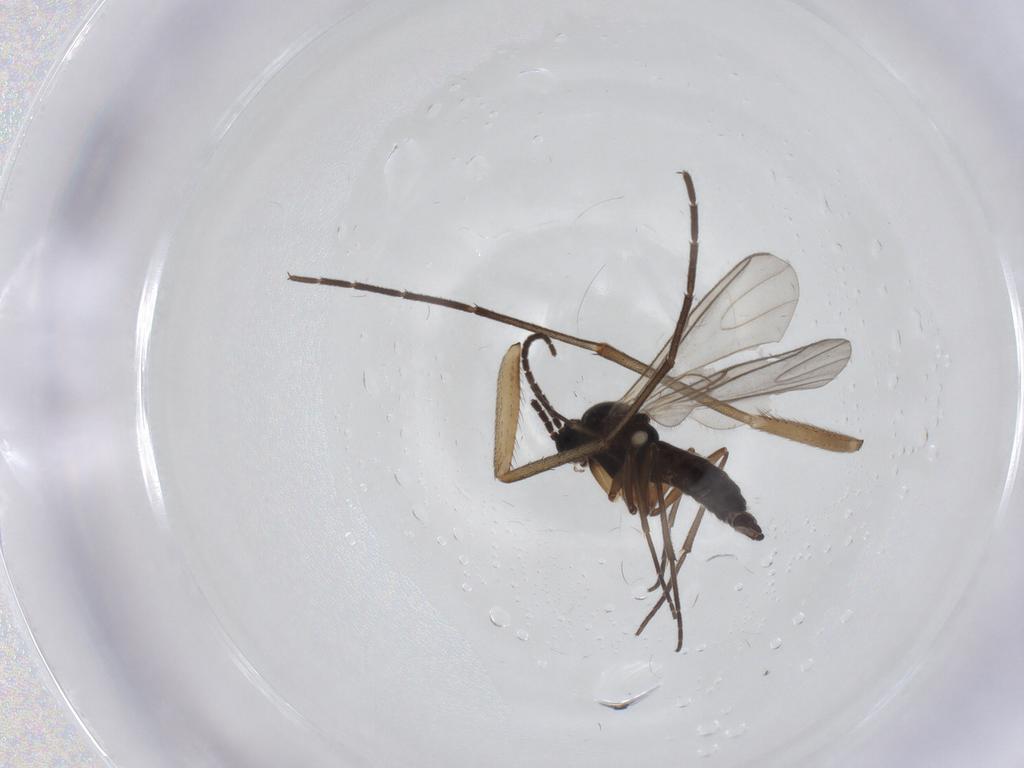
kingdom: Animalia
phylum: Arthropoda
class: Insecta
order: Diptera
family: Sciaridae
